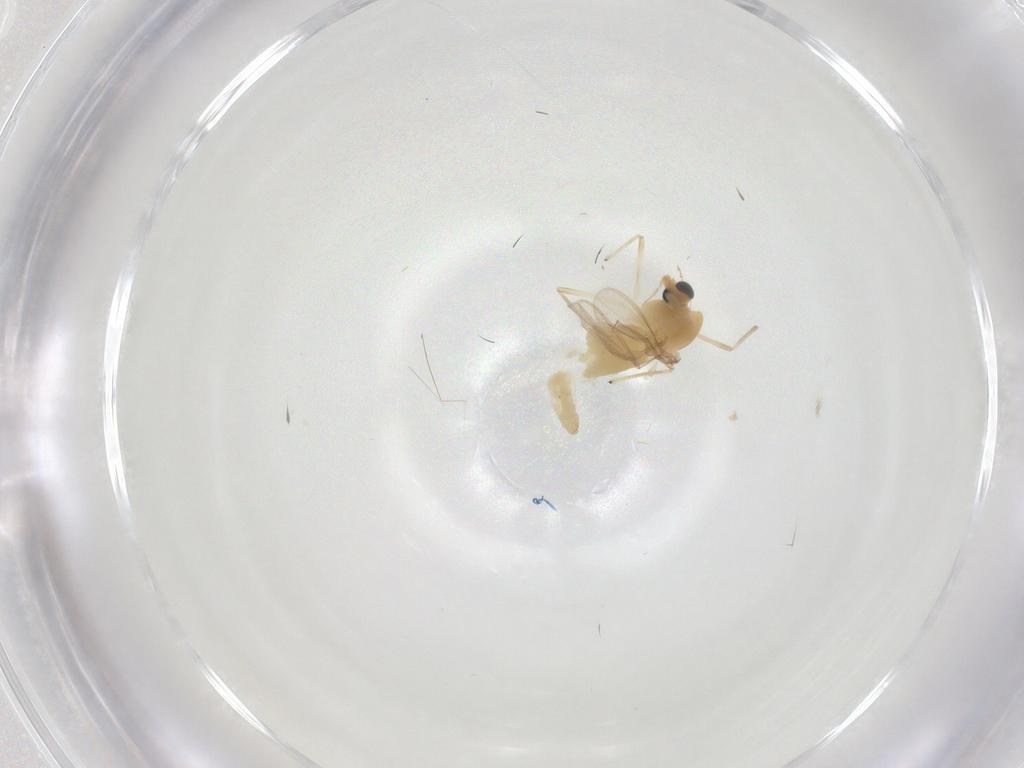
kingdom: Animalia
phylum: Arthropoda
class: Insecta
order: Diptera
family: Chironomidae
